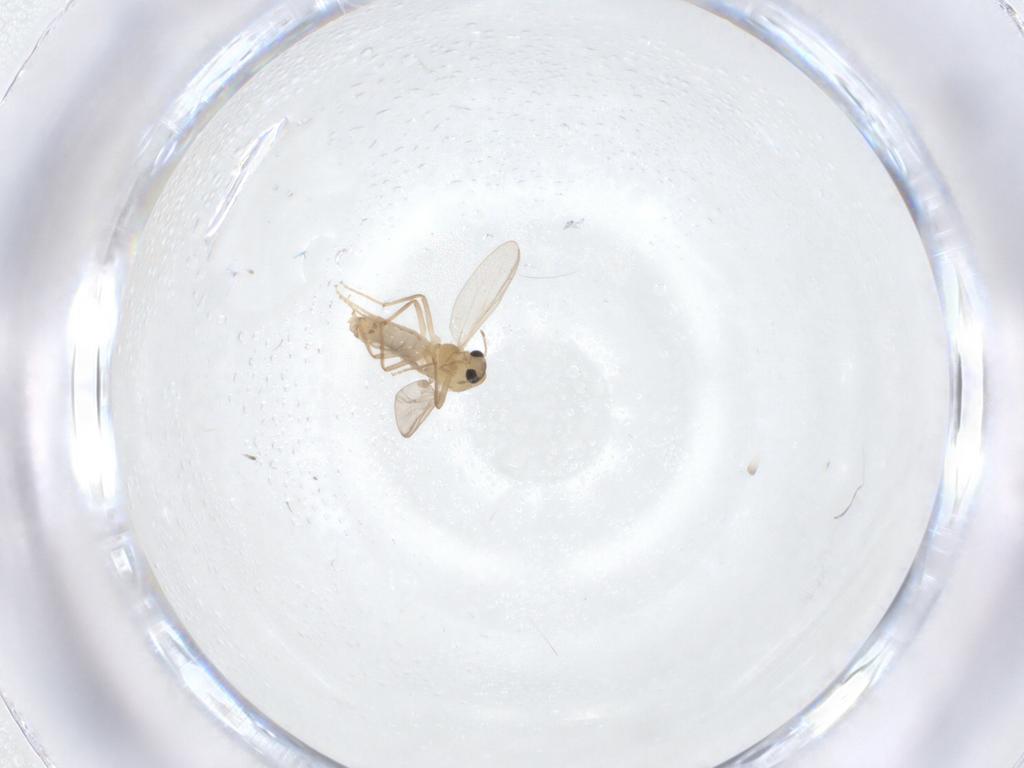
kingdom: Animalia
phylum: Arthropoda
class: Insecta
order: Diptera
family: Chironomidae
